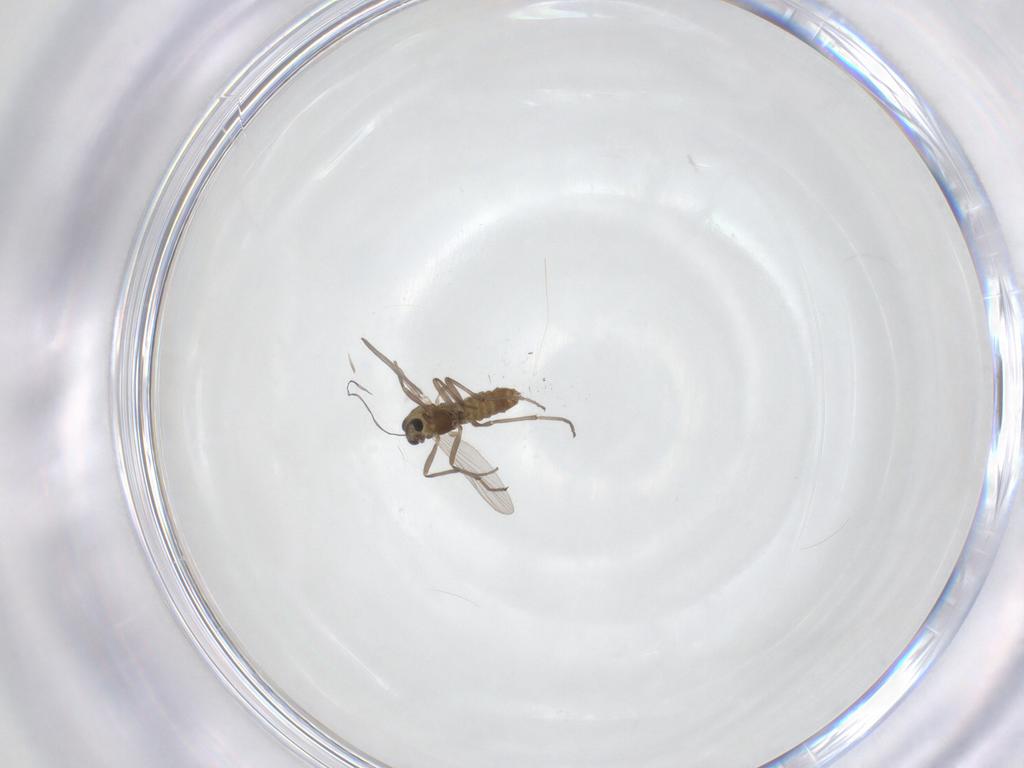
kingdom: Animalia
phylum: Arthropoda
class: Insecta
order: Diptera
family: Chironomidae
